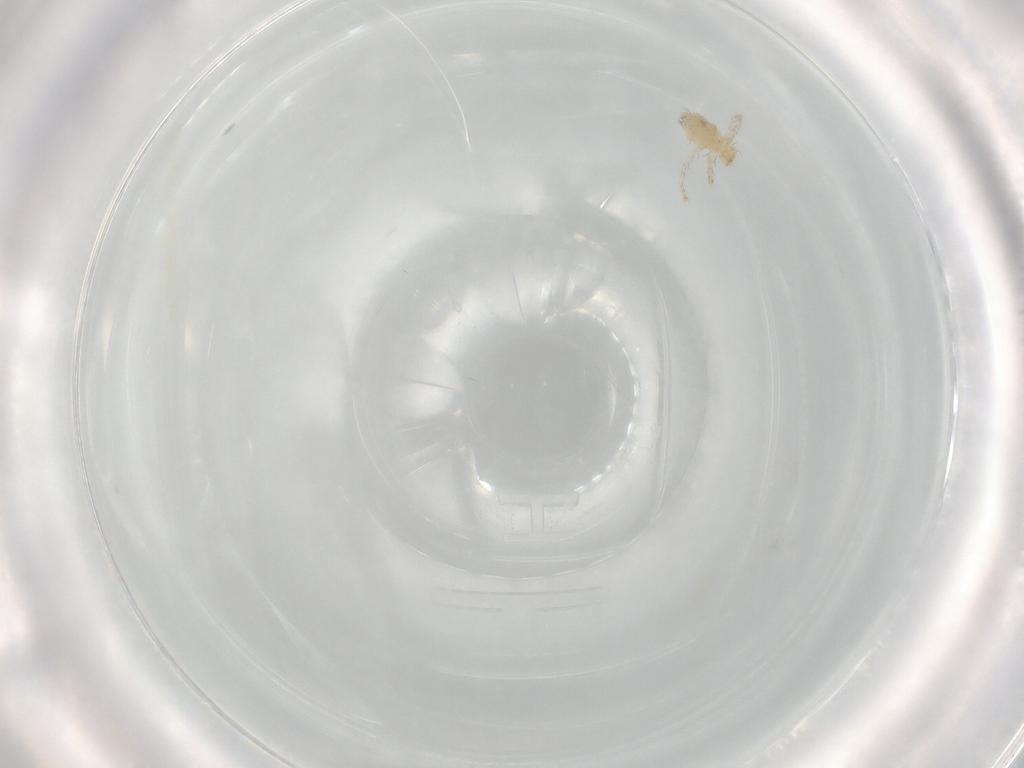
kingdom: Animalia
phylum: Arthropoda
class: Arachnida
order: Trombidiformes
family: Erythraeidae
